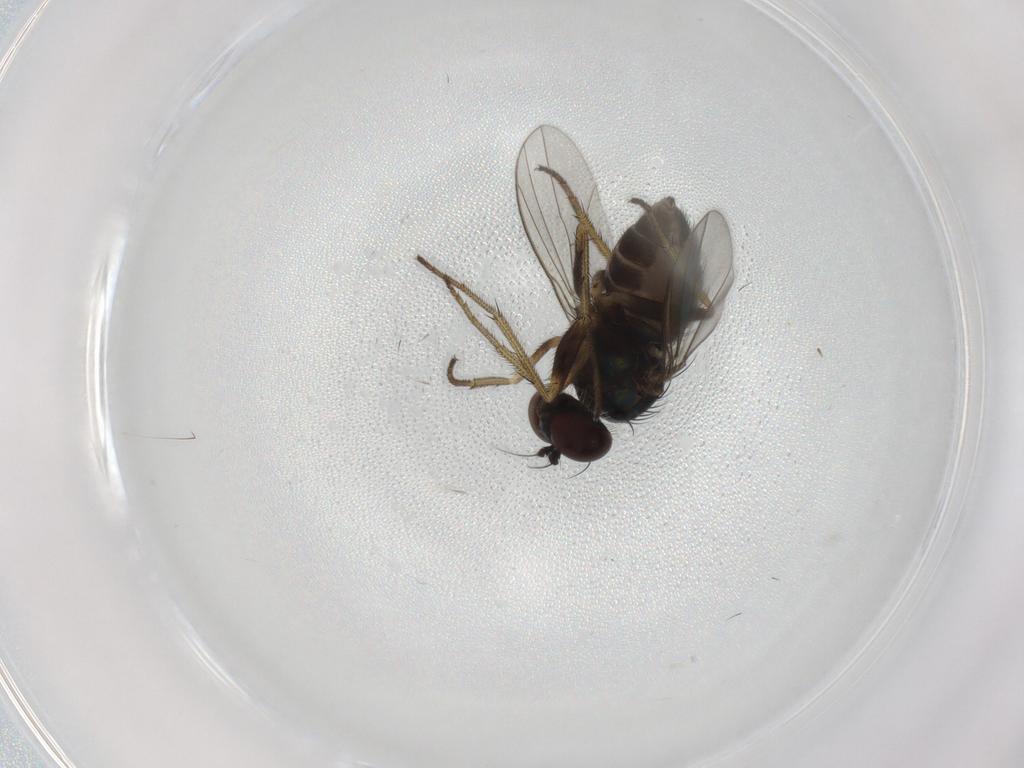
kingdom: Animalia
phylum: Arthropoda
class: Insecta
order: Diptera
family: Dolichopodidae
